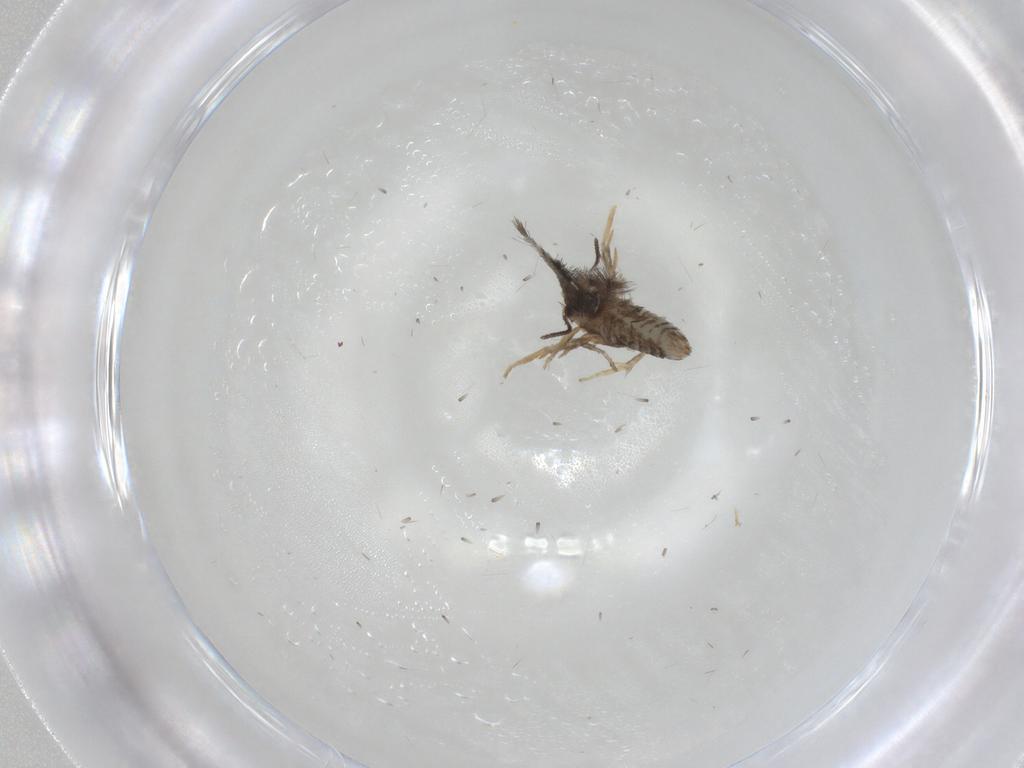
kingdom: Animalia
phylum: Arthropoda
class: Insecta
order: Lepidoptera
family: Nepticulidae
